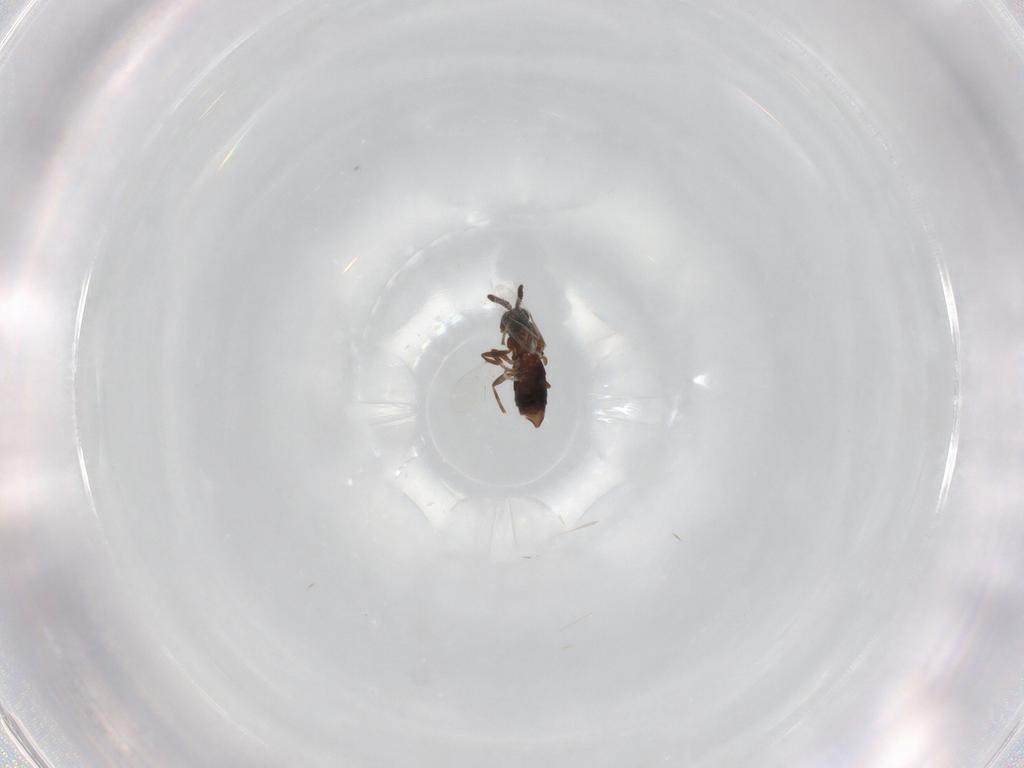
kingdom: Animalia
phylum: Arthropoda
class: Insecta
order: Diptera
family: Scatopsidae
